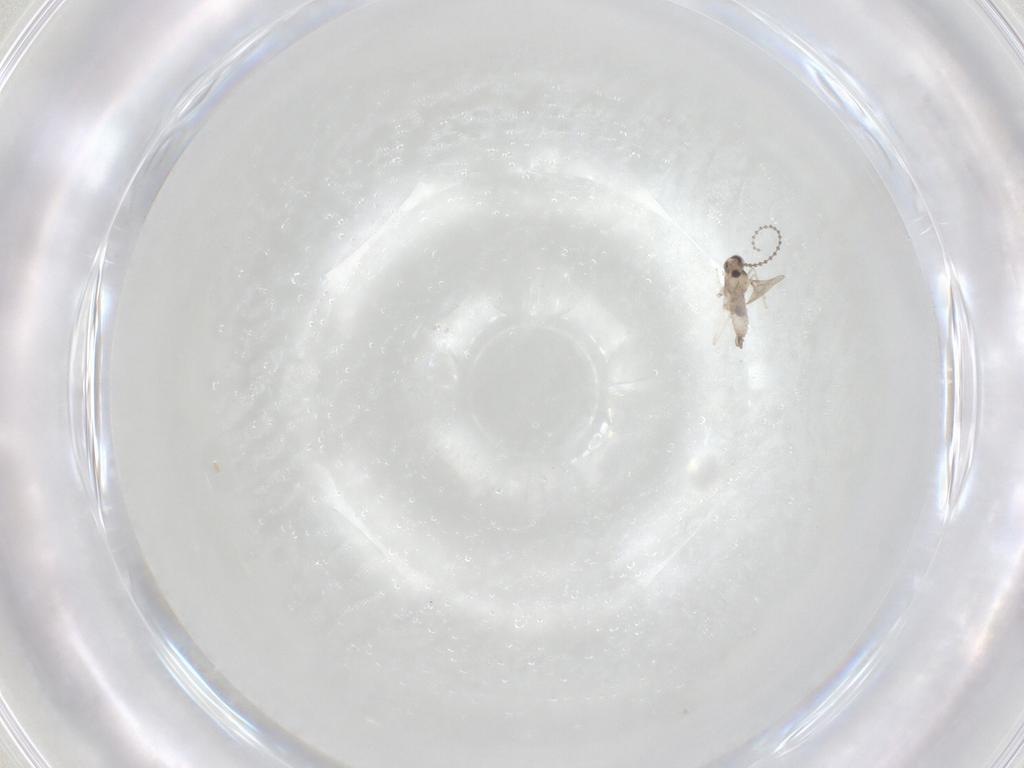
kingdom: Animalia
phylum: Arthropoda
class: Insecta
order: Diptera
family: Cecidomyiidae
